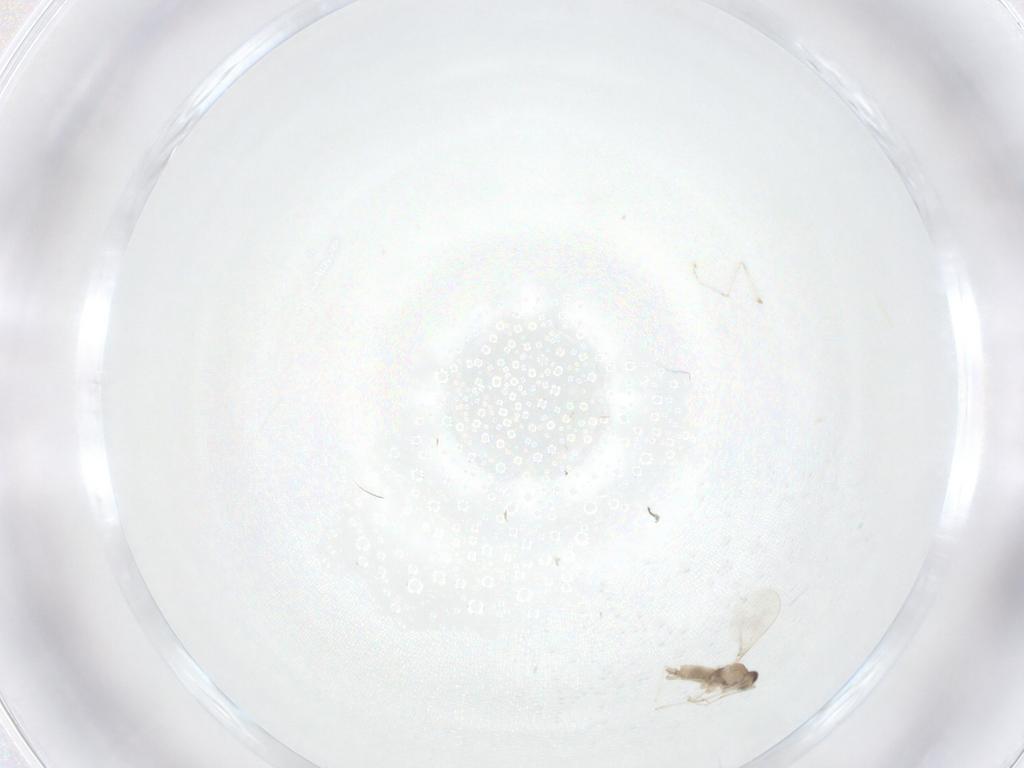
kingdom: Animalia
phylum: Arthropoda
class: Insecta
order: Diptera
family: Cecidomyiidae
